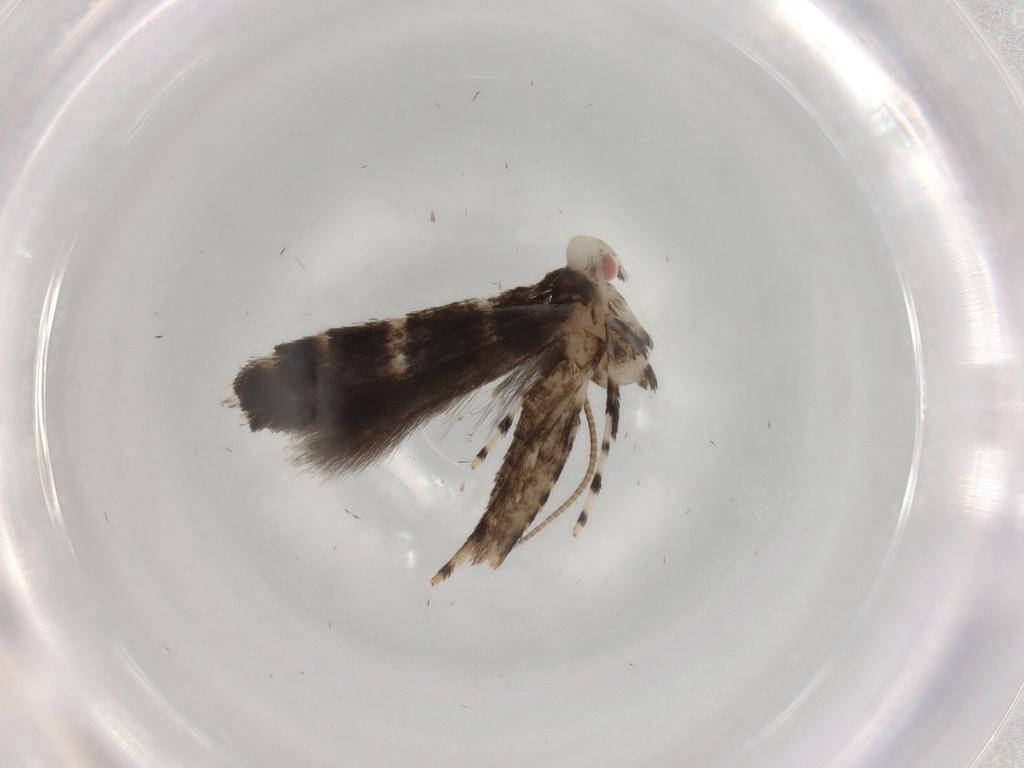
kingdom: Animalia
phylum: Arthropoda
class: Insecta
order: Lepidoptera
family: Gracillariidae
